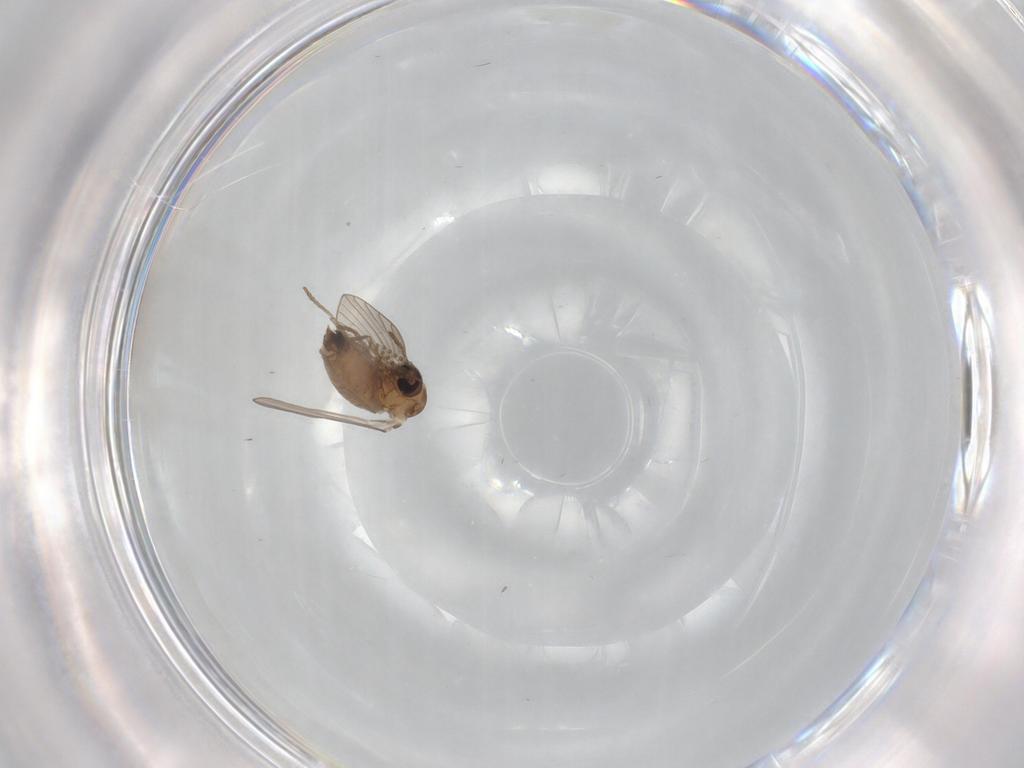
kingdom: Animalia
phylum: Arthropoda
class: Insecta
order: Diptera
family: Psychodidae
